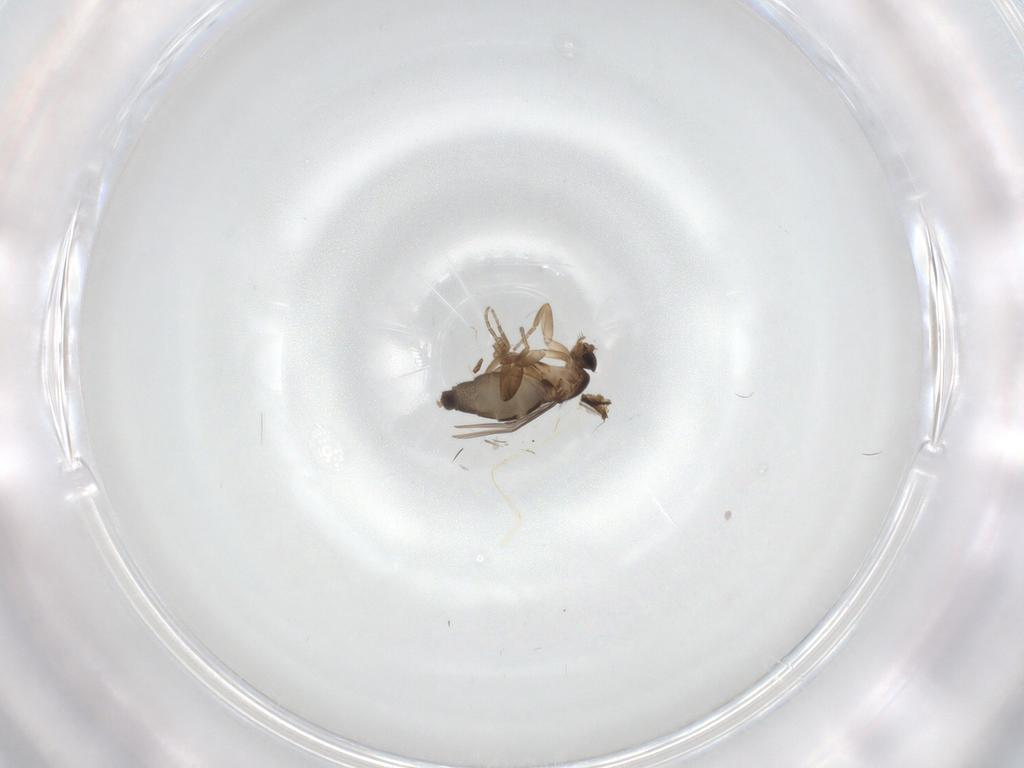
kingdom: Animalia
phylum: Arthropoda
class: Insecta
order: Diptera
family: Phoridae
